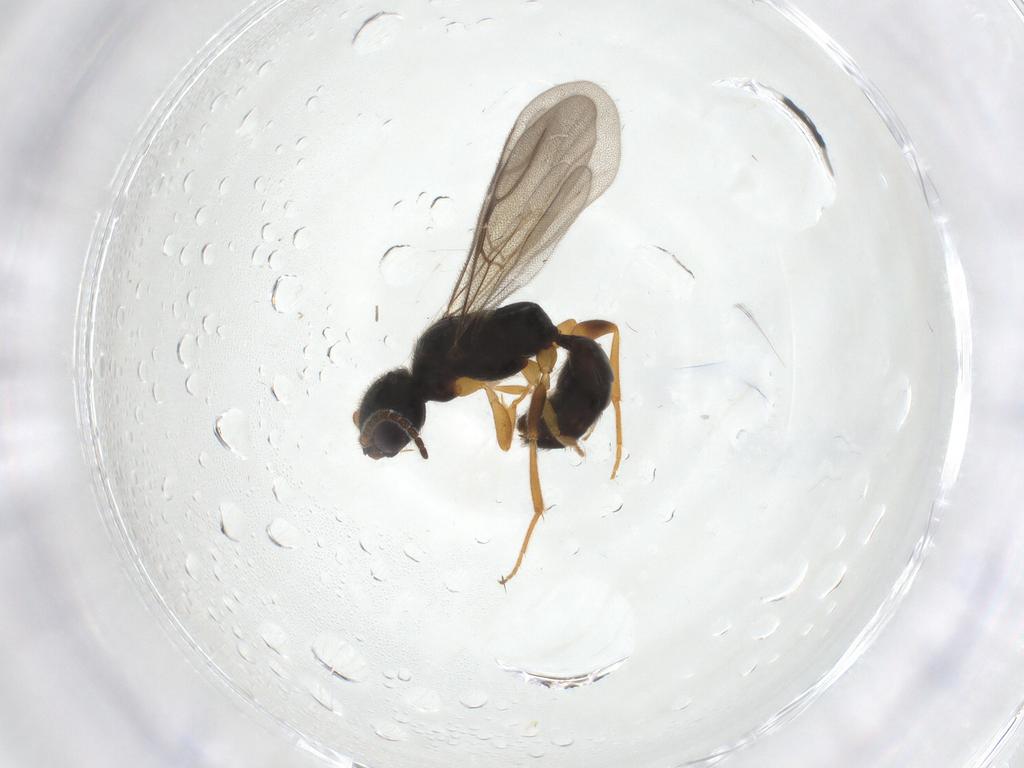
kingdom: Animalia
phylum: Arthropoda
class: Insecta
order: Hymenoptera
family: Bethylidae
